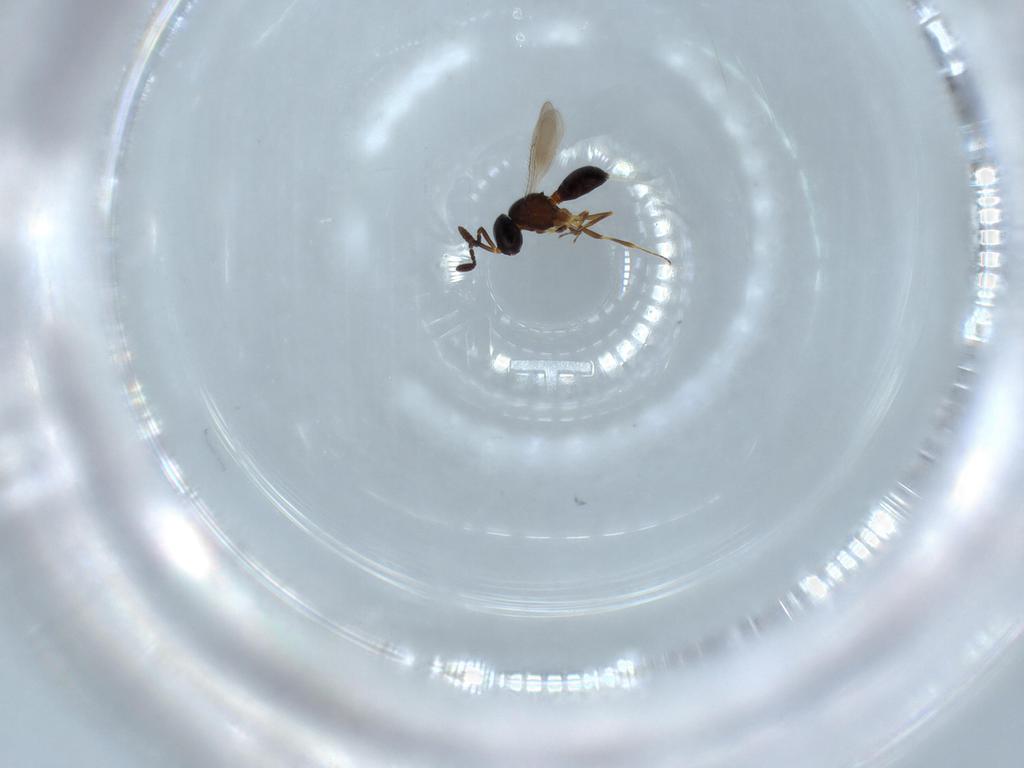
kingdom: Animalia
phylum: Arthropoda
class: Insecta
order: Hymenoptera
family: Scelionidae
